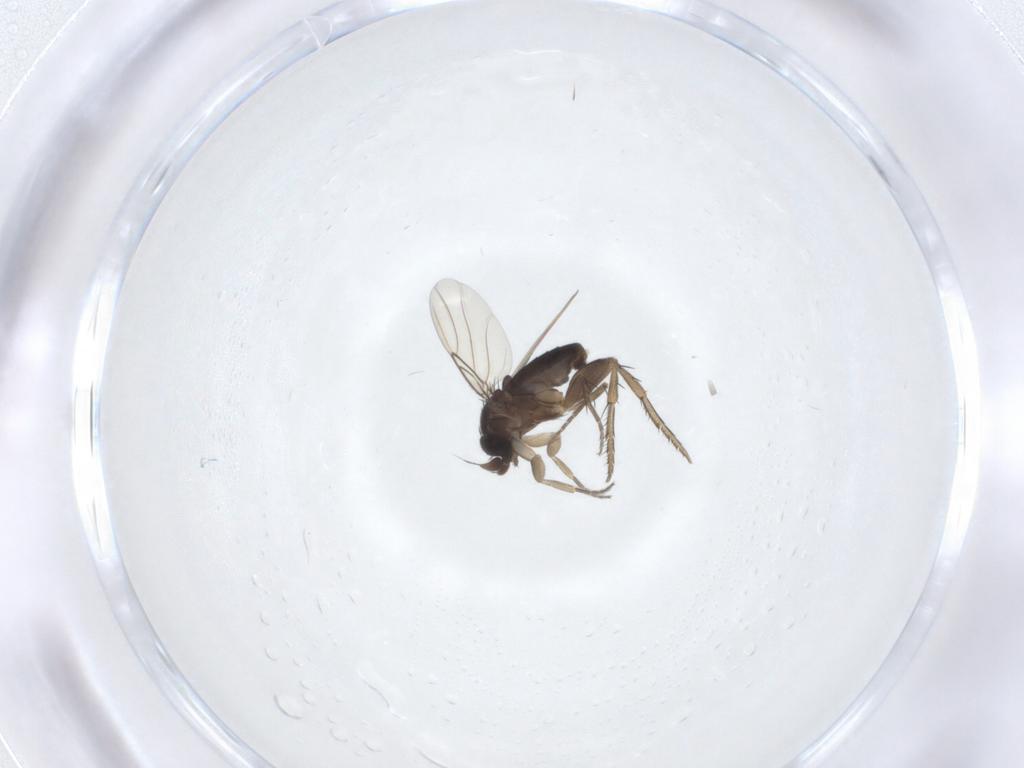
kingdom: Animalia
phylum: Arthropoda
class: Insecta
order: Diptera
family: Phoridae
